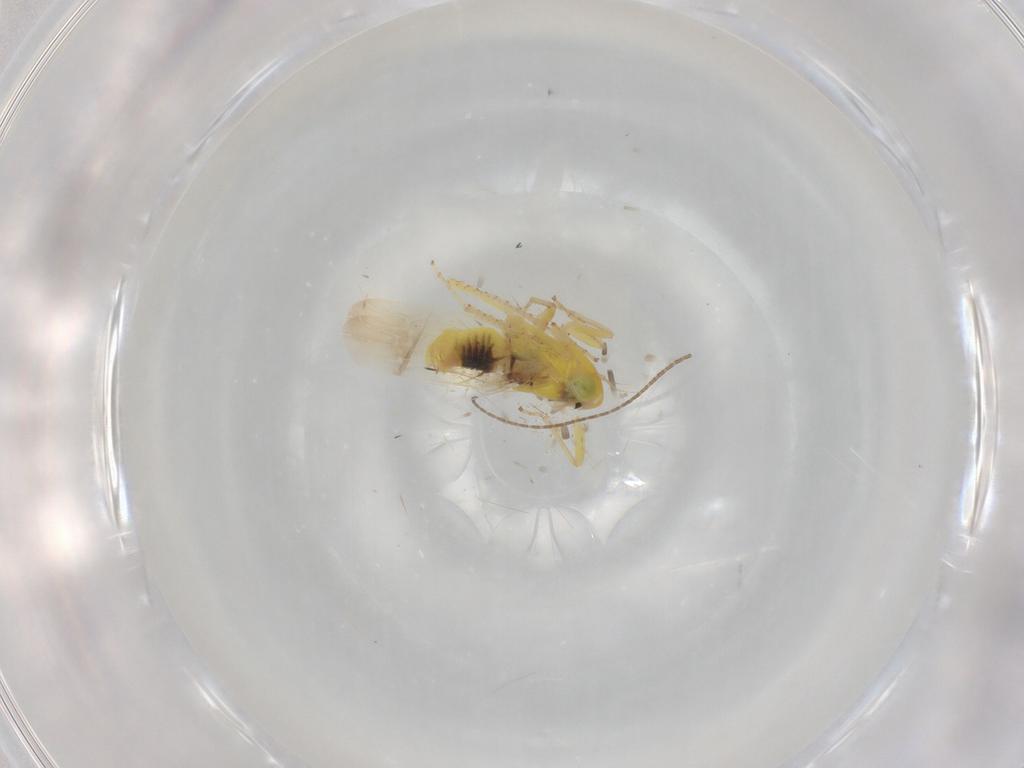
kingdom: Animalia
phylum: Arthropoda
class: Insecta
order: Hemiptera
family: Cicadellidae
